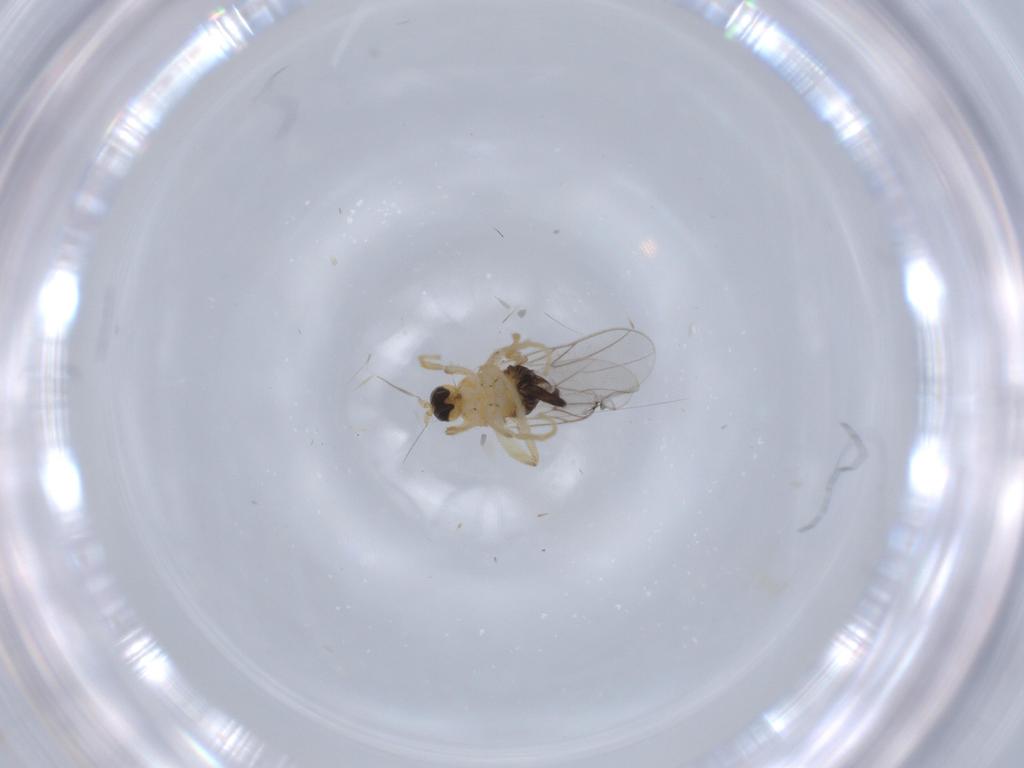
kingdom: Animalia
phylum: Arthropoda
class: Insecta
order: Diptera
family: Hybotidae
